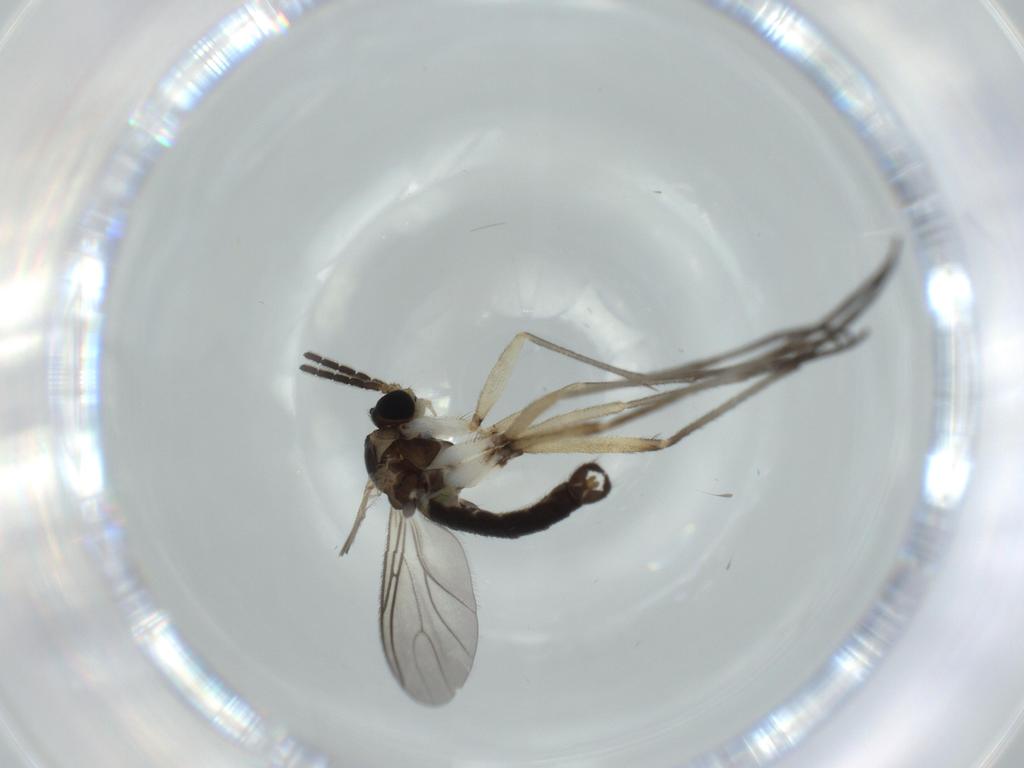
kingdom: Animalia
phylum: Arthropoda
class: Insecta
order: Diptera
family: Sciaridae
